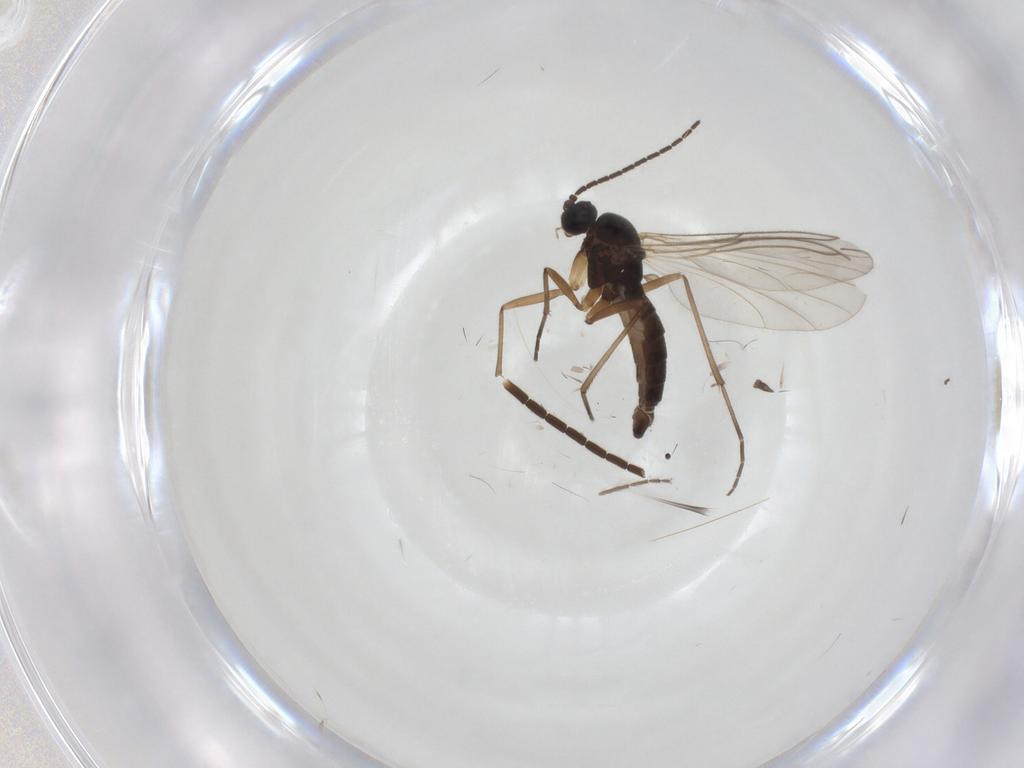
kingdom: Animalia
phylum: Arthropoda
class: Insecta
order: Diptera
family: Sciaridae
